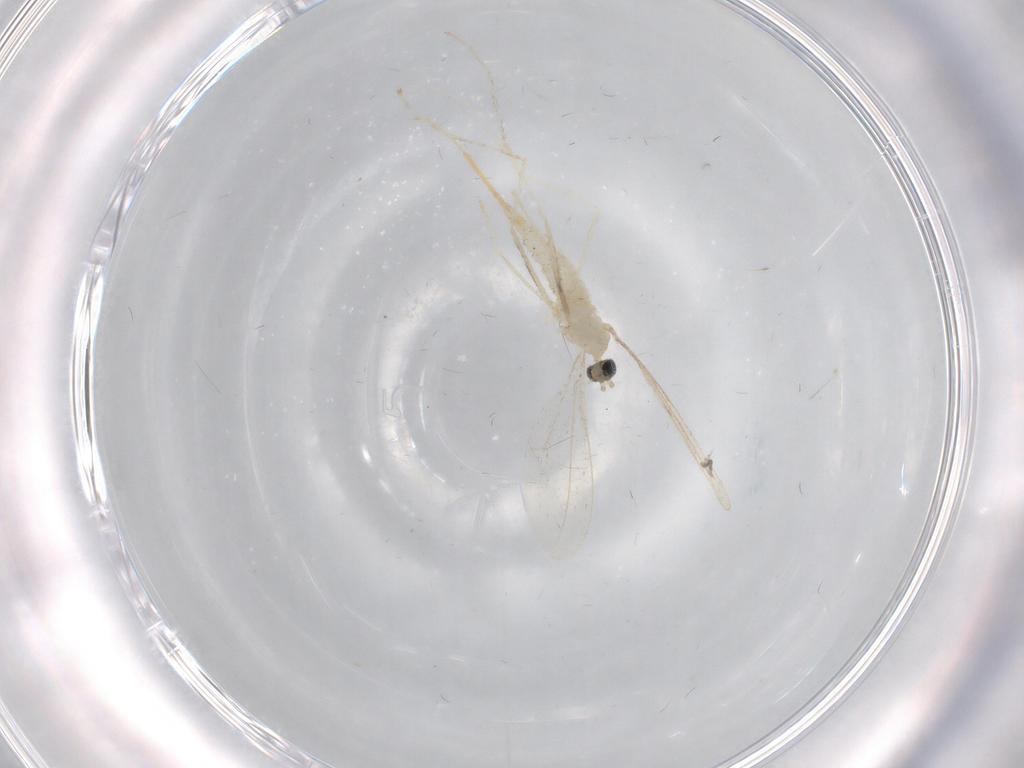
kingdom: Animalia
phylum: Arthropoda
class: Insecta
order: Diptera
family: Cecidomyiidae
